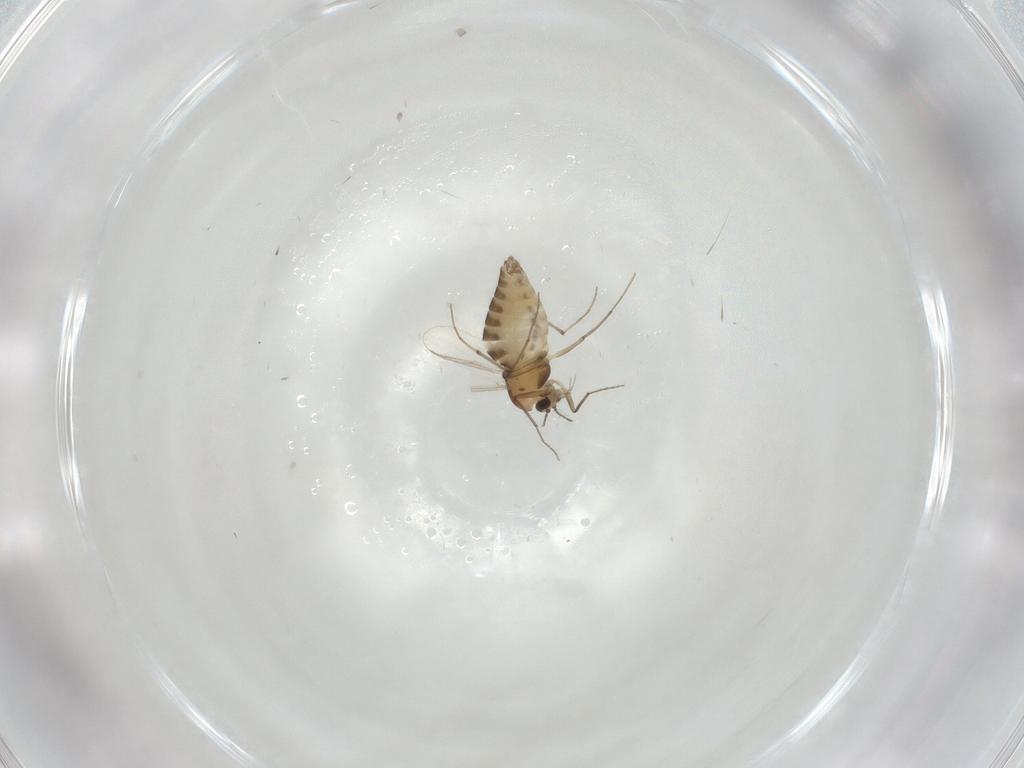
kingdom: Animalia
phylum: Arthropoda
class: Insecta
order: Diptera
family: Chironomidae
